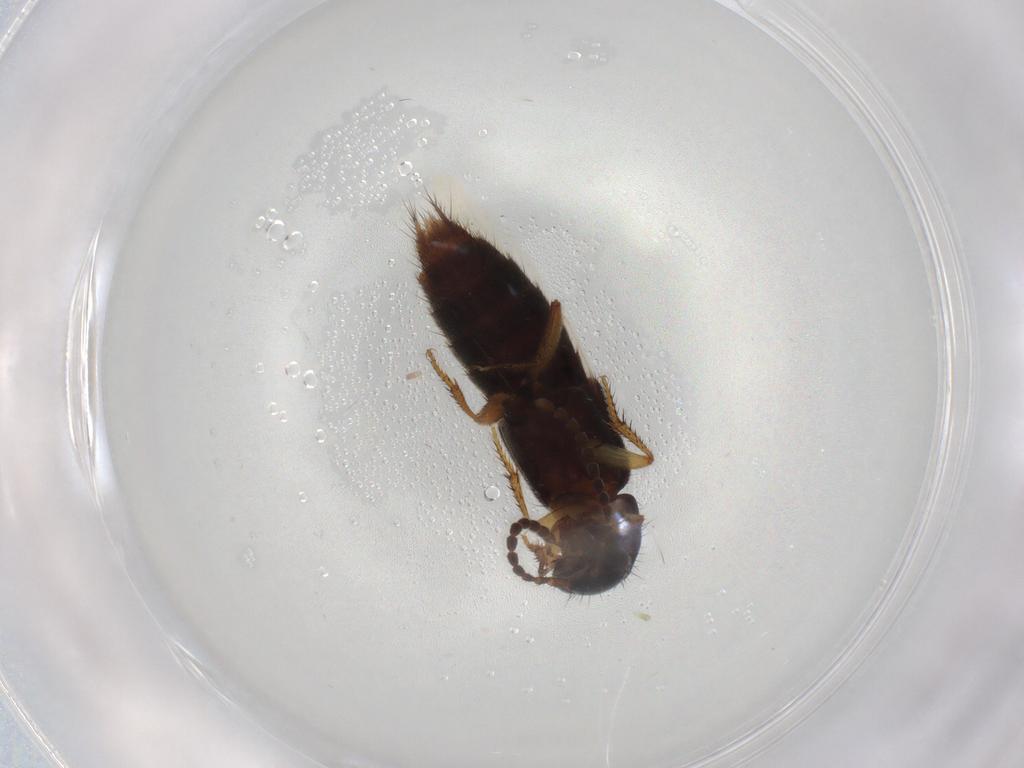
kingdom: Animalia
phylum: Arthropoda
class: Insecta
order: Coleoptera
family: Staphylinidae
